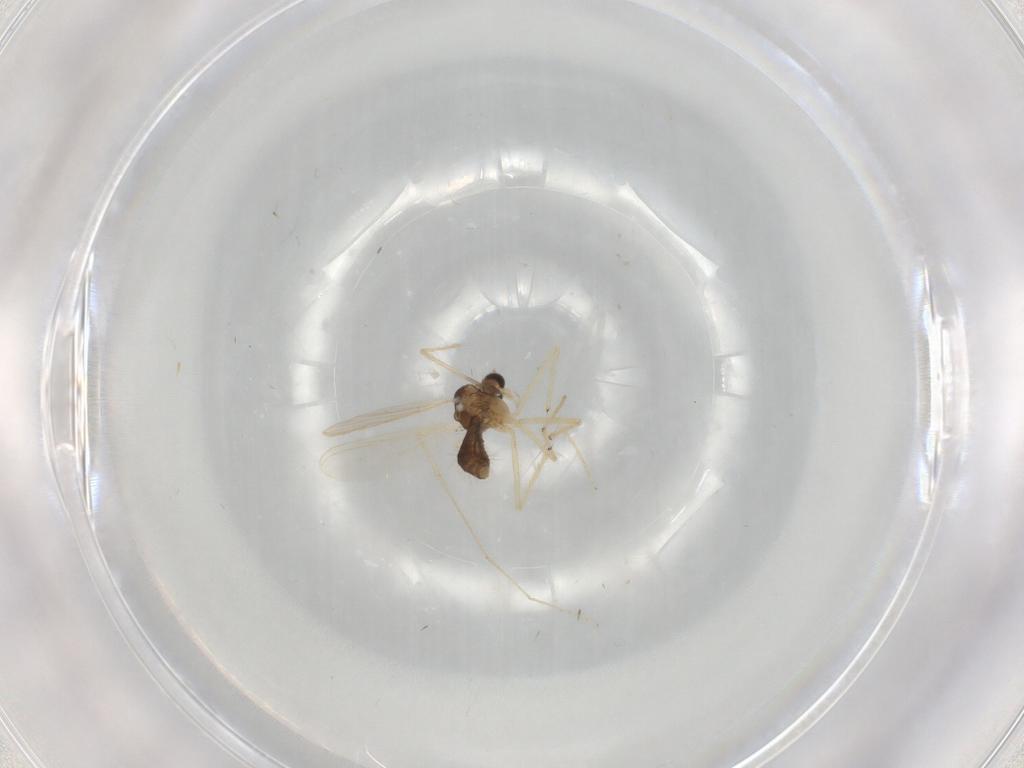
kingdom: Animalia
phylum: Arthropoda
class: Insecta
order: Diptera
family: Chironomidae
